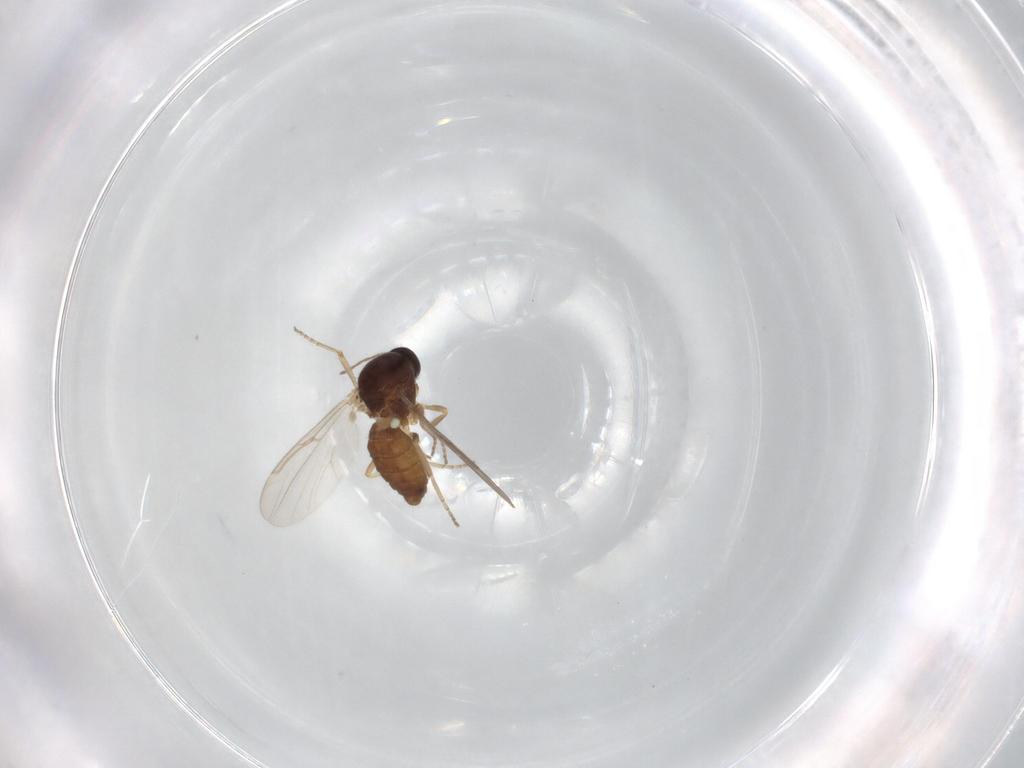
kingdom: Animalia
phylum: Arthropoda
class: Insecta
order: Diptera
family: Ceratopogonidae
